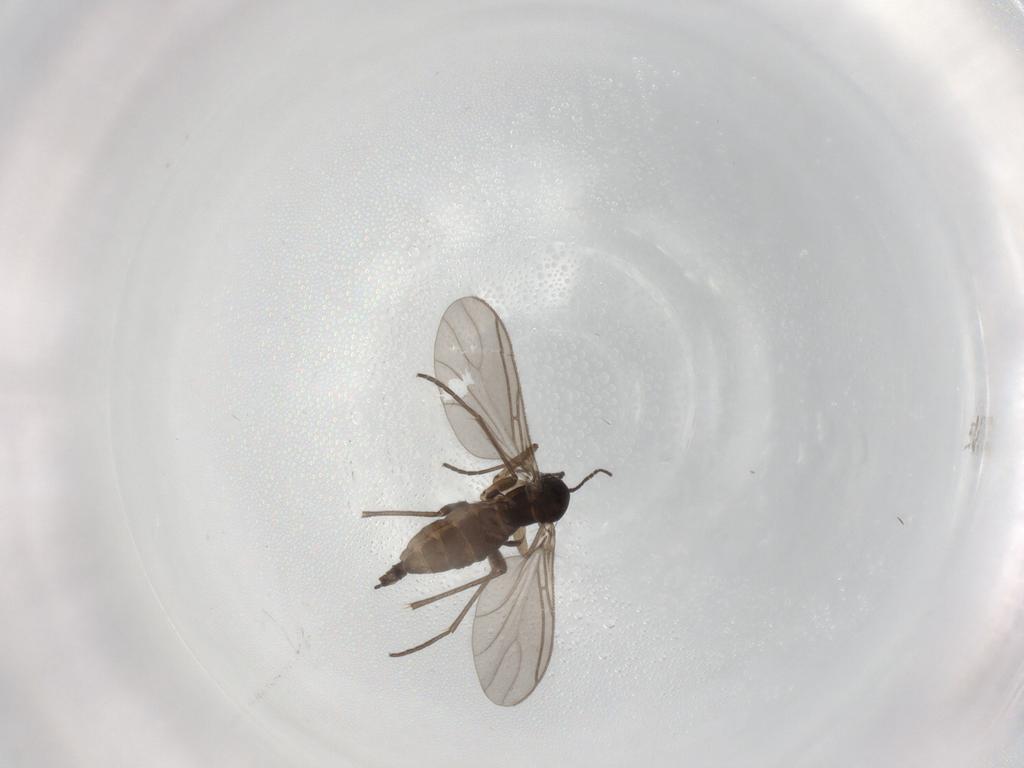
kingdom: Animalia
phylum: Arthropoda
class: Insecta
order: Diptera
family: Sciaridae
